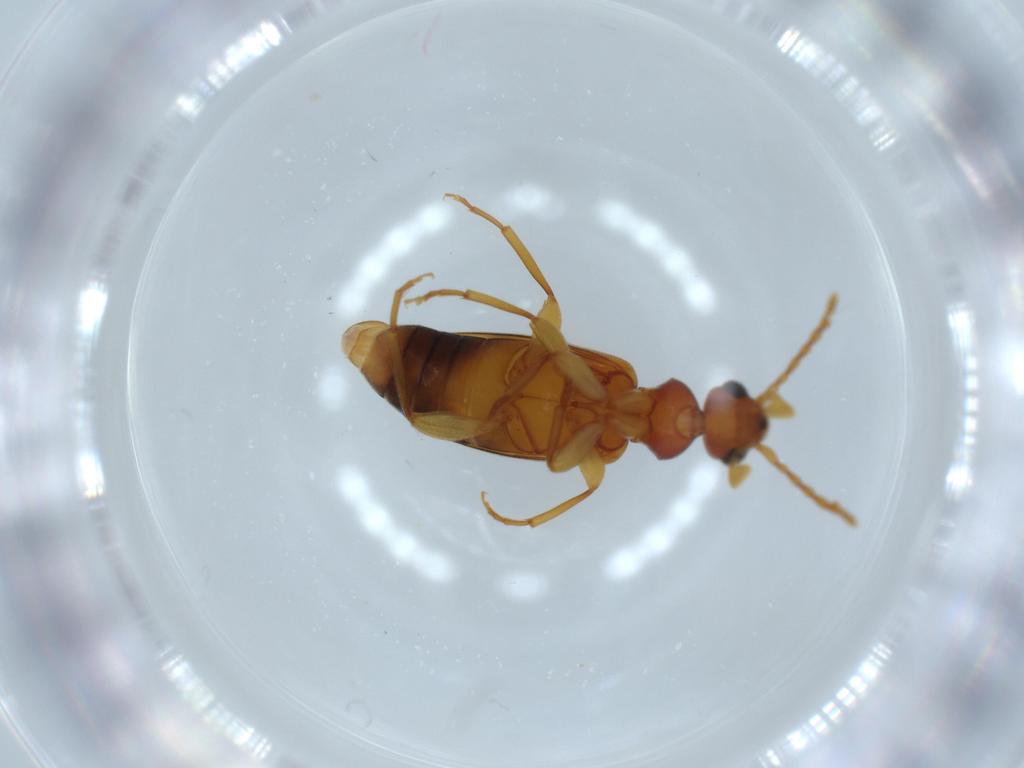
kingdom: Animalia
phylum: Arthropoda
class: Insecta
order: Coleoptera
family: Anthicidae
